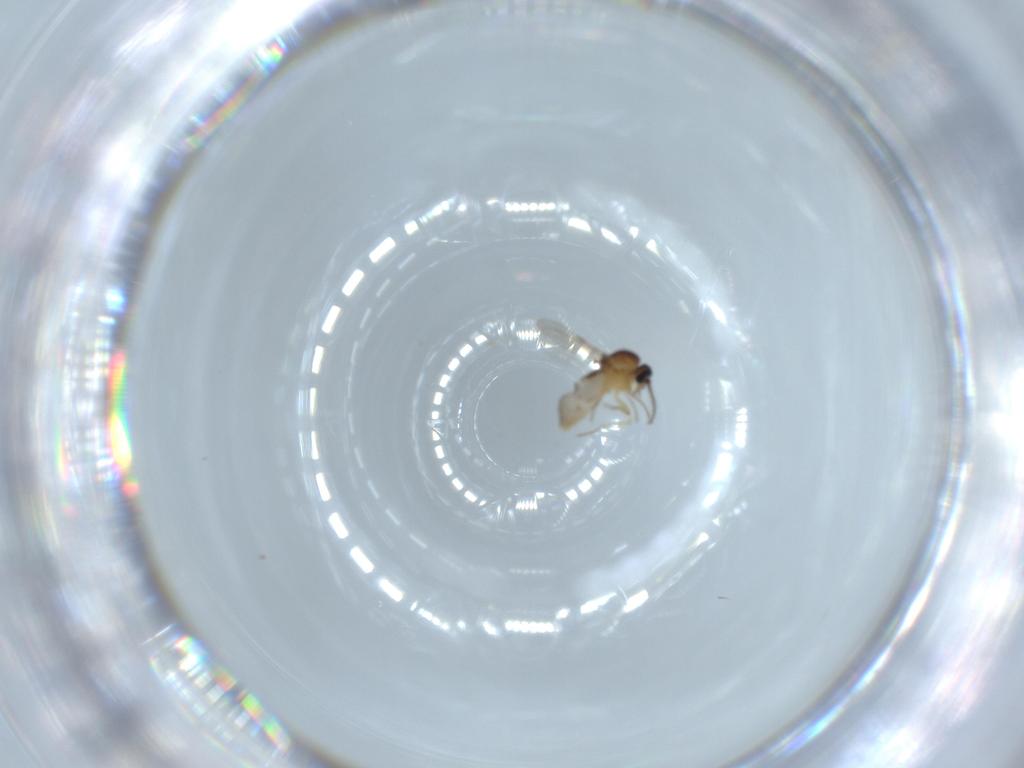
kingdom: Animalia
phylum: Arthropoda
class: Insecta
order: Diptera
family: Ceratopogonidae
